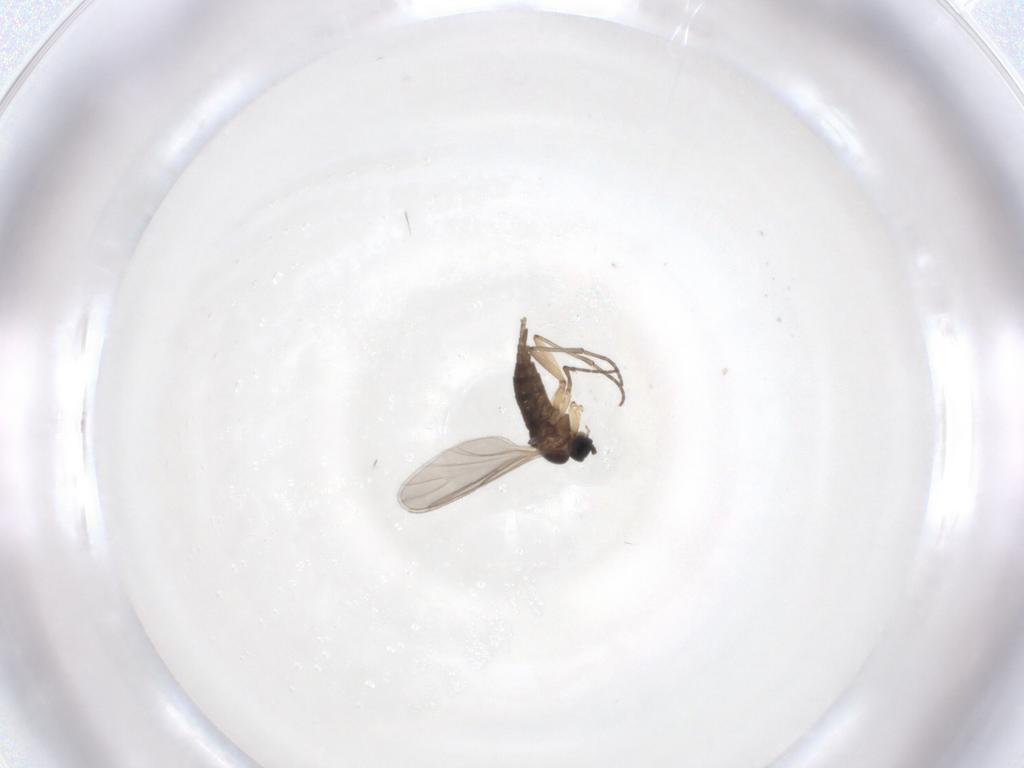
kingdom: Animalia
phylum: Arthropoda
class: Insecta
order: Diptera
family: Sciaridae
